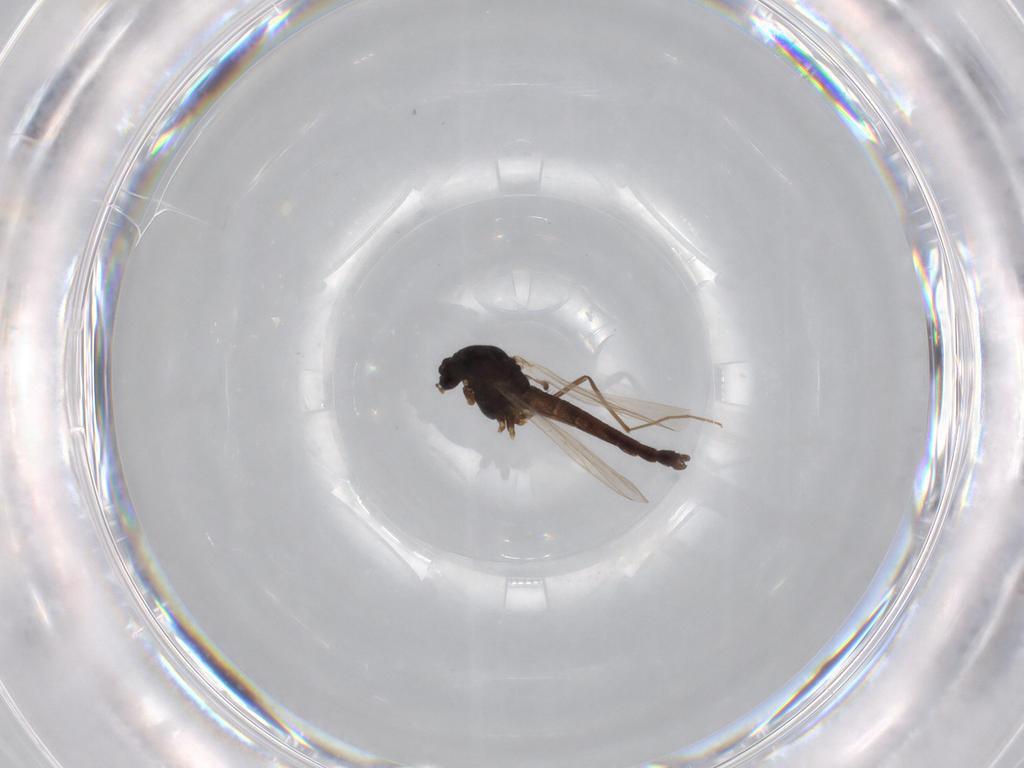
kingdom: Animalia
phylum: Arthropoda
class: Insecta
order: Diptera
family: Chironomidae
